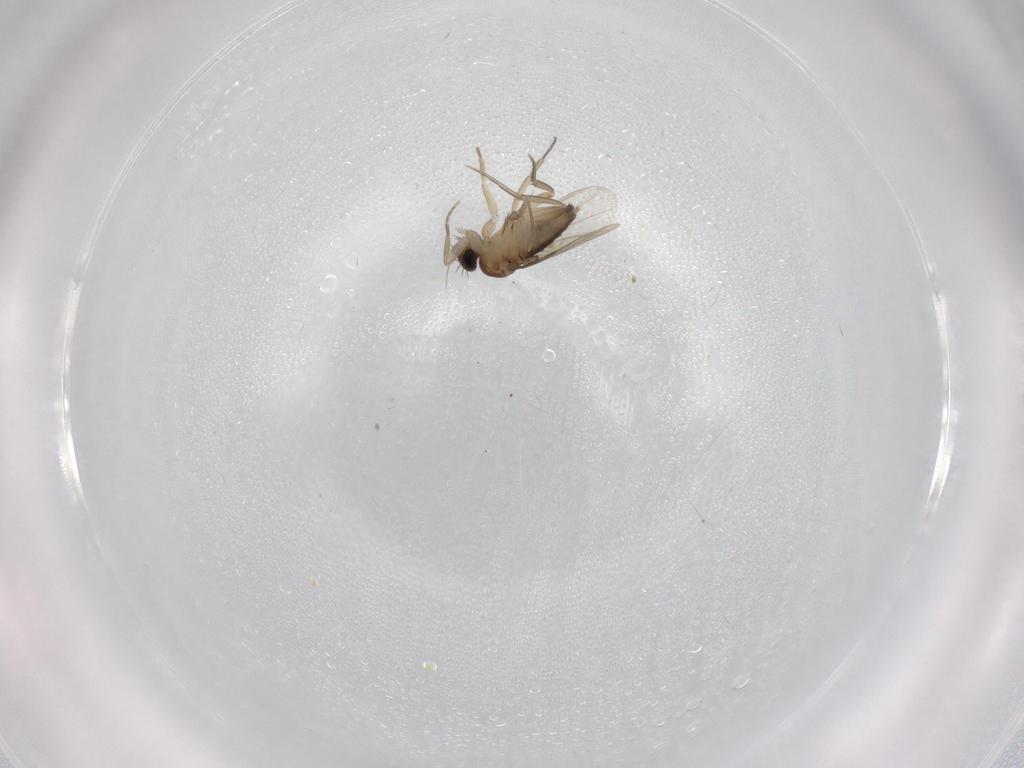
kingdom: Animalia
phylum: Arthropoda
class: Insecta
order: Diptera
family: Phoridae
